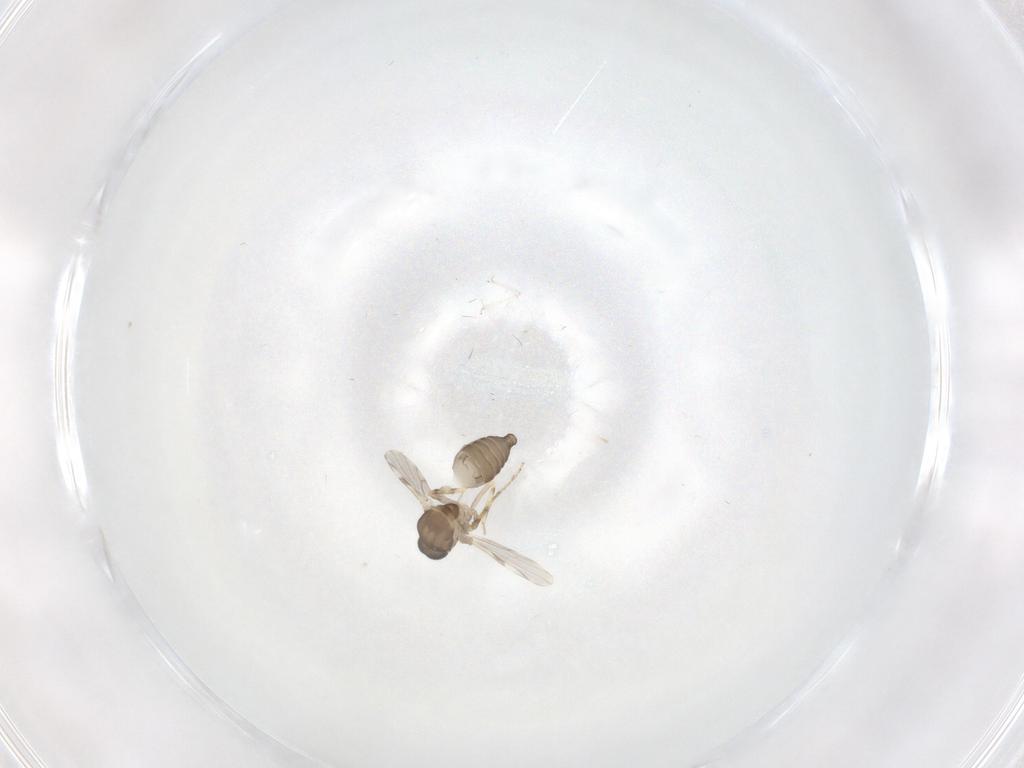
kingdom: Animalia
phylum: Arthropoda
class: Insecta
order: Diptera
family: Ceratopogonidae
